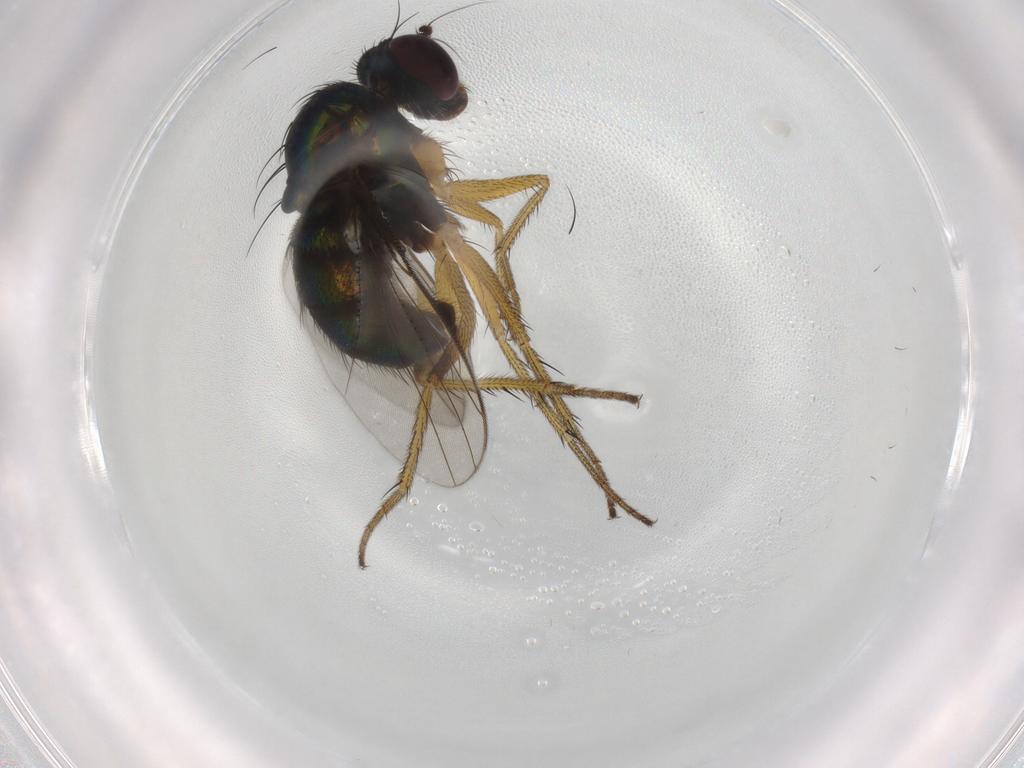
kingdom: Animalia
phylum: Arthropoda
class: Insecta
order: Diptera
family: Dolichopodidae
